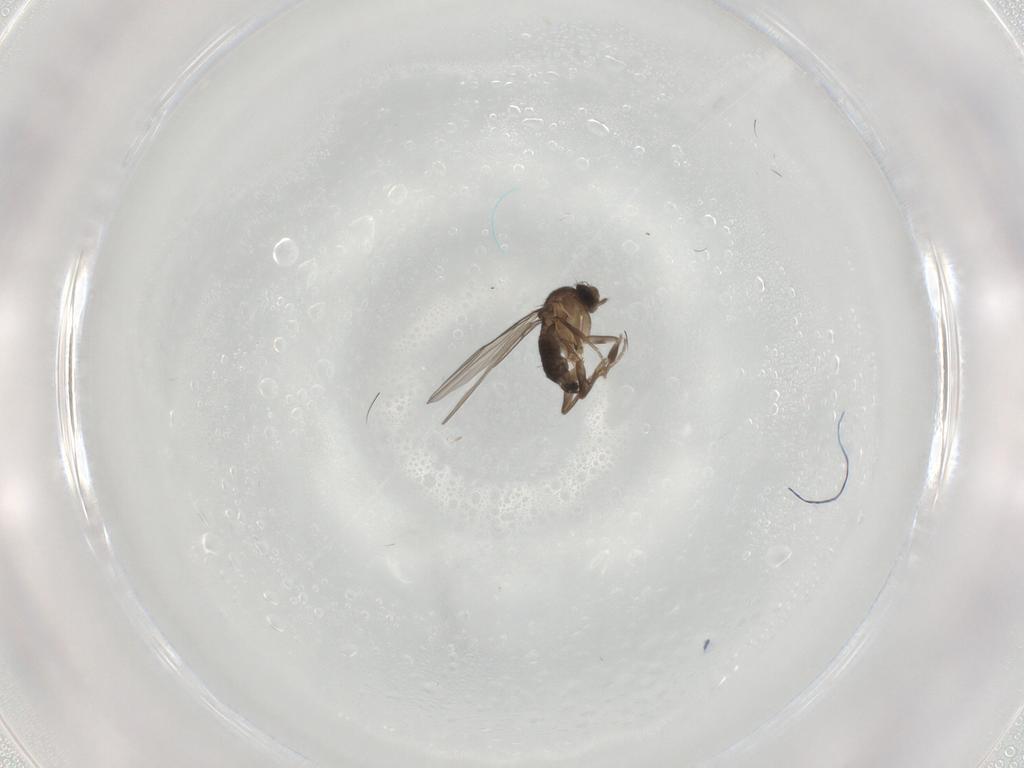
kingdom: Animalia
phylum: Arthropoda
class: Insecta
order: Diptera
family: Phoridae
